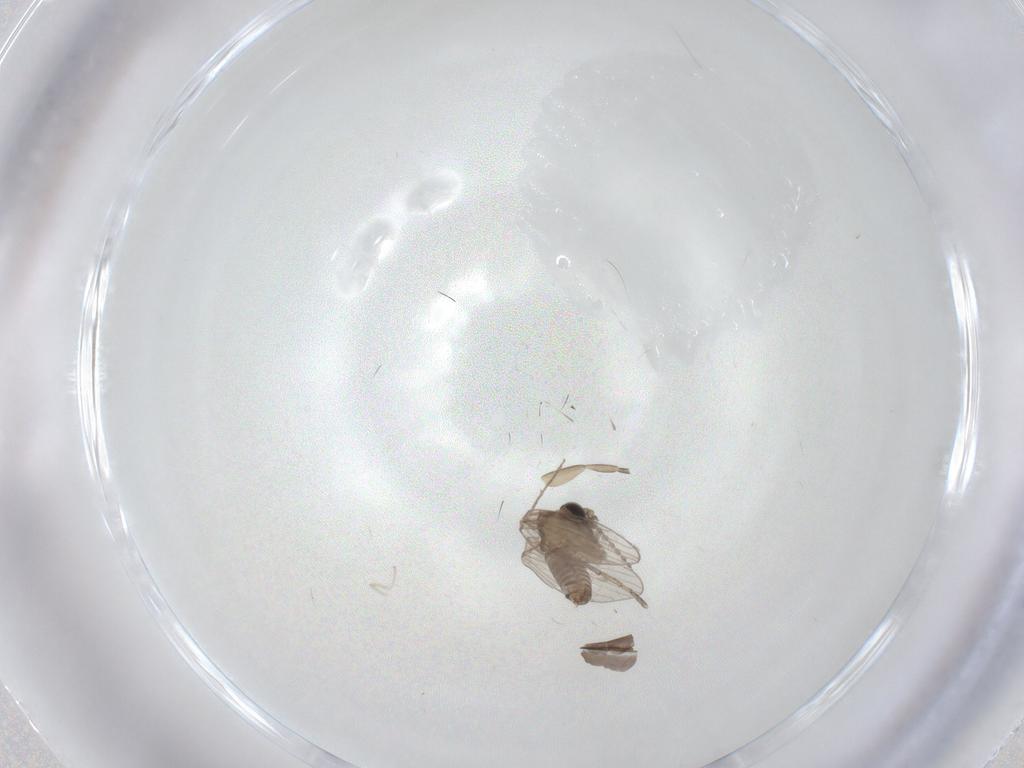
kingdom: Animalia
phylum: Arthropoda
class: Insecta
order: Diptera
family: Cecidomyiidae
